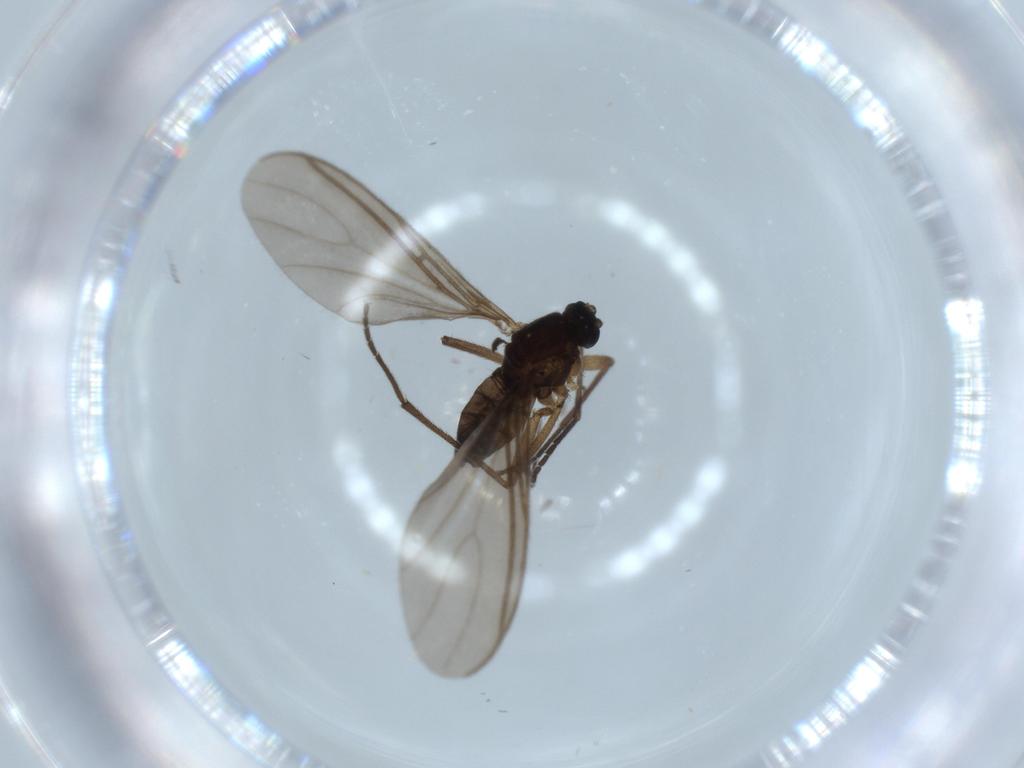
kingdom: Animalia
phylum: Arthropoda
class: Insecta
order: Diptera
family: Sciaridae
